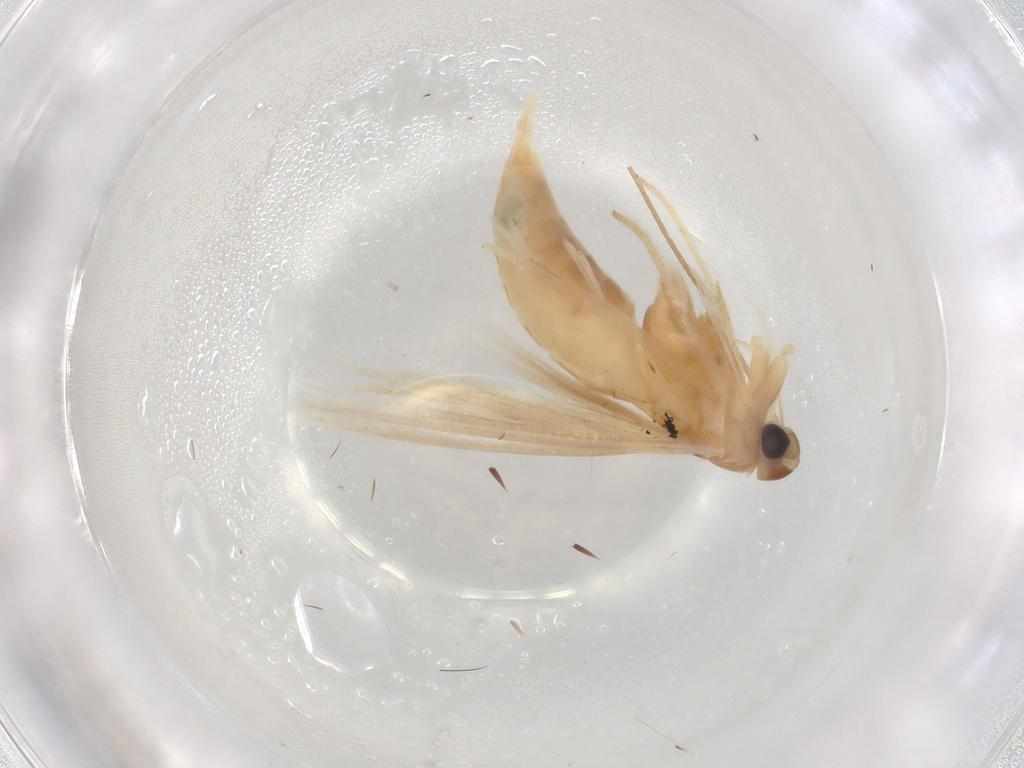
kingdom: Animalia
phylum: Arthropoda
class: Insecta
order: Lepidoptera
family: Coleophoridae
